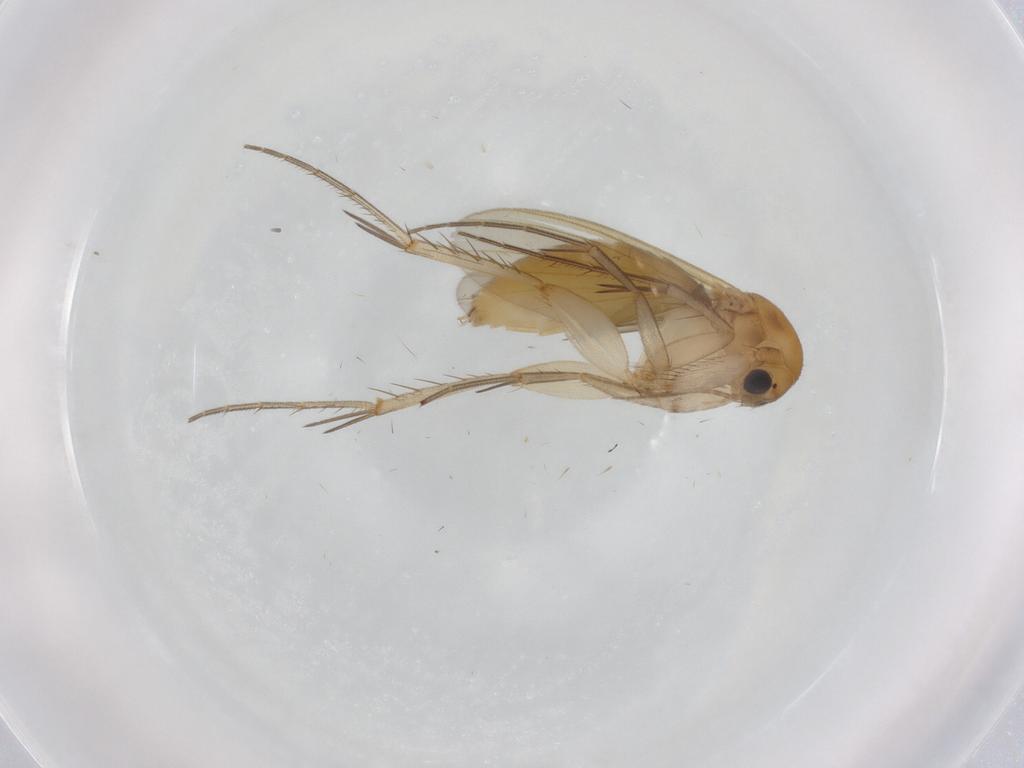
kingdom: Animalia
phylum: Arthropoda
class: Insecta
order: Diptera
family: Mycetophilidae
